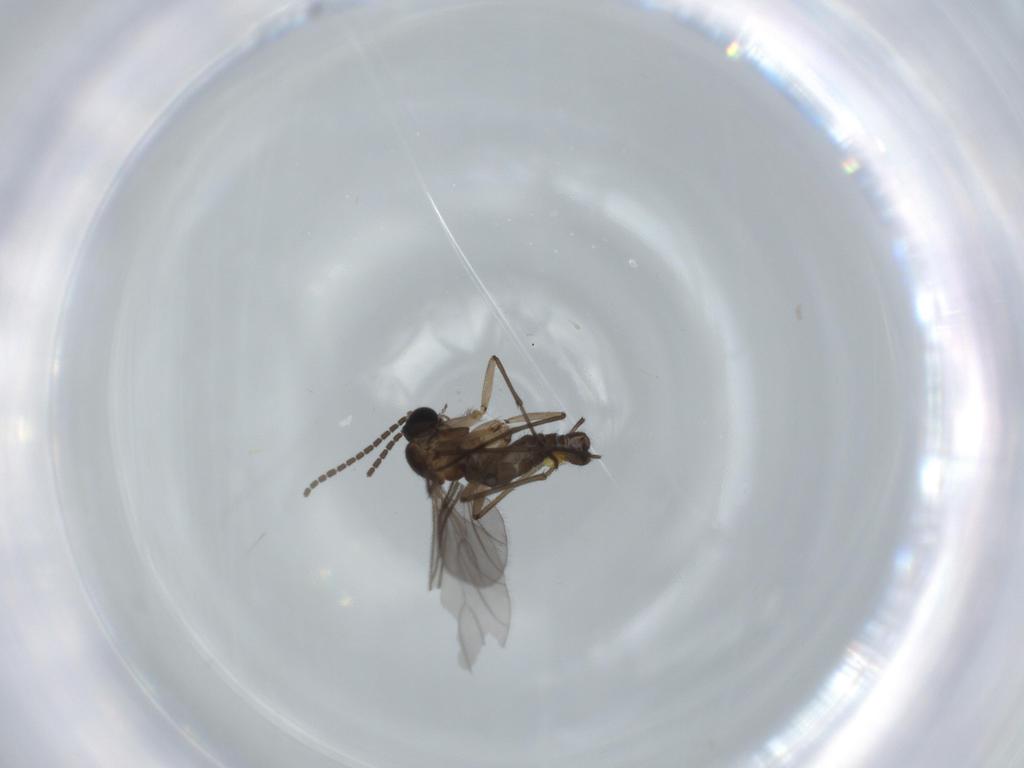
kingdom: Animalia
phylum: Arthropoda
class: Insecta
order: Diptera
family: Sciaridae
